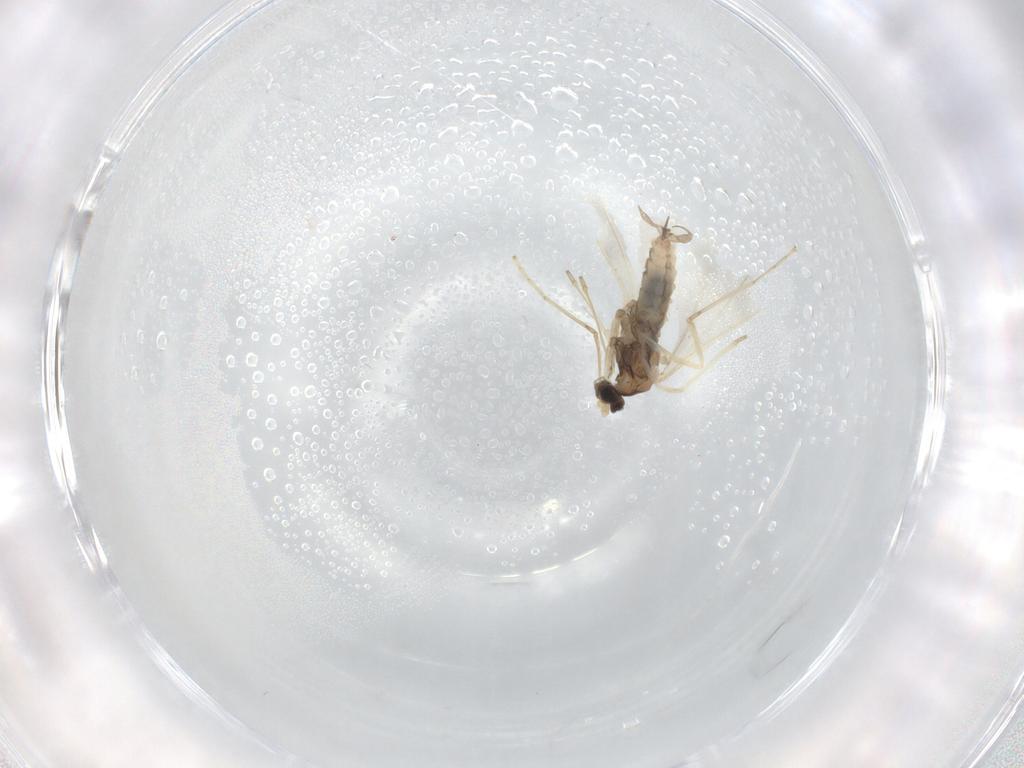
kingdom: Animalia
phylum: Arthropoda
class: Insecta
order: Diptera
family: Cecidomyiidae
